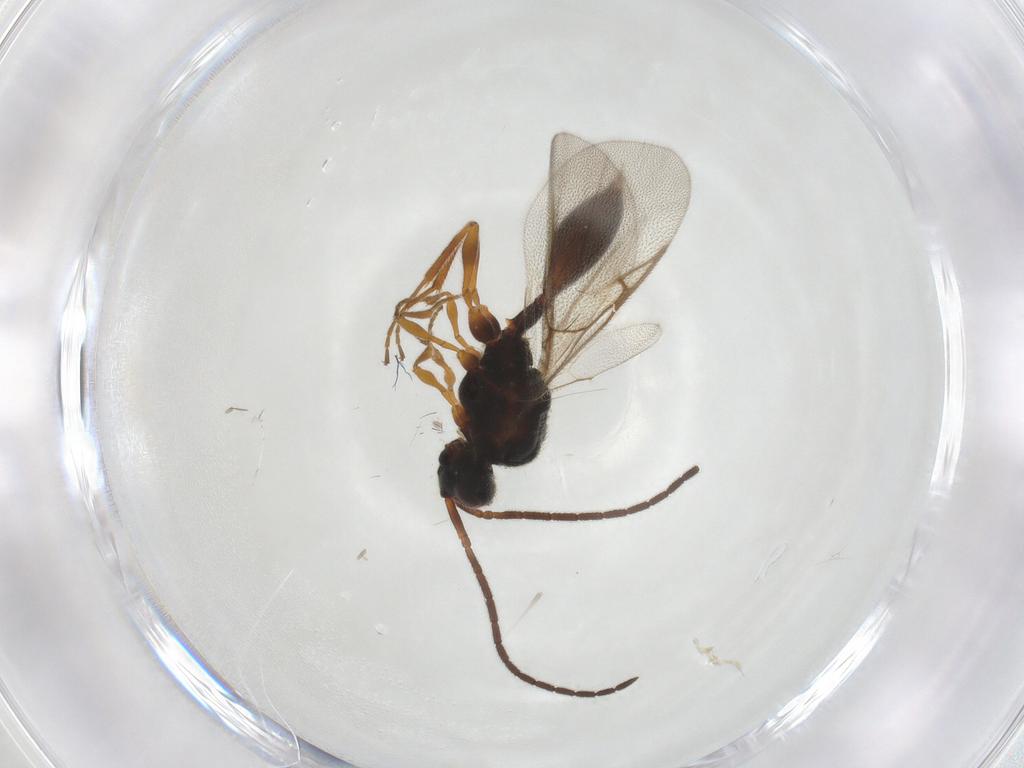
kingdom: Animalia
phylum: Arthropoda
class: Insecta
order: Hymenoptera
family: Diapriidae
